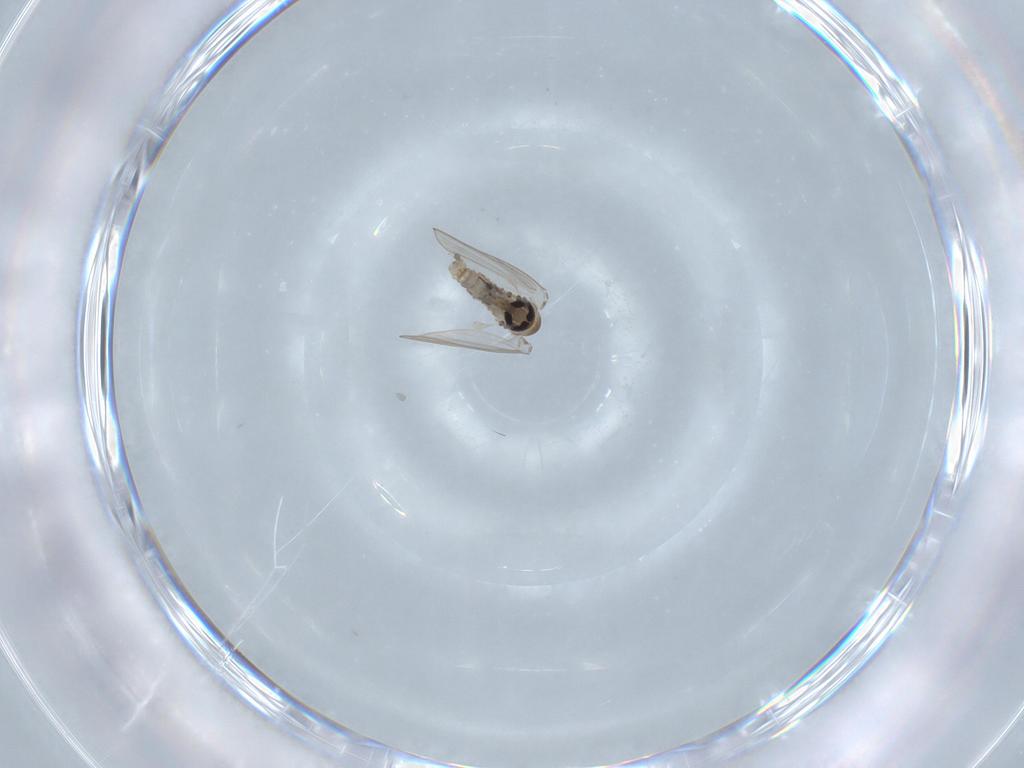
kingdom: Animalia
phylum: Arthropoda
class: Insecta
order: Diptera
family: Psychodidae
